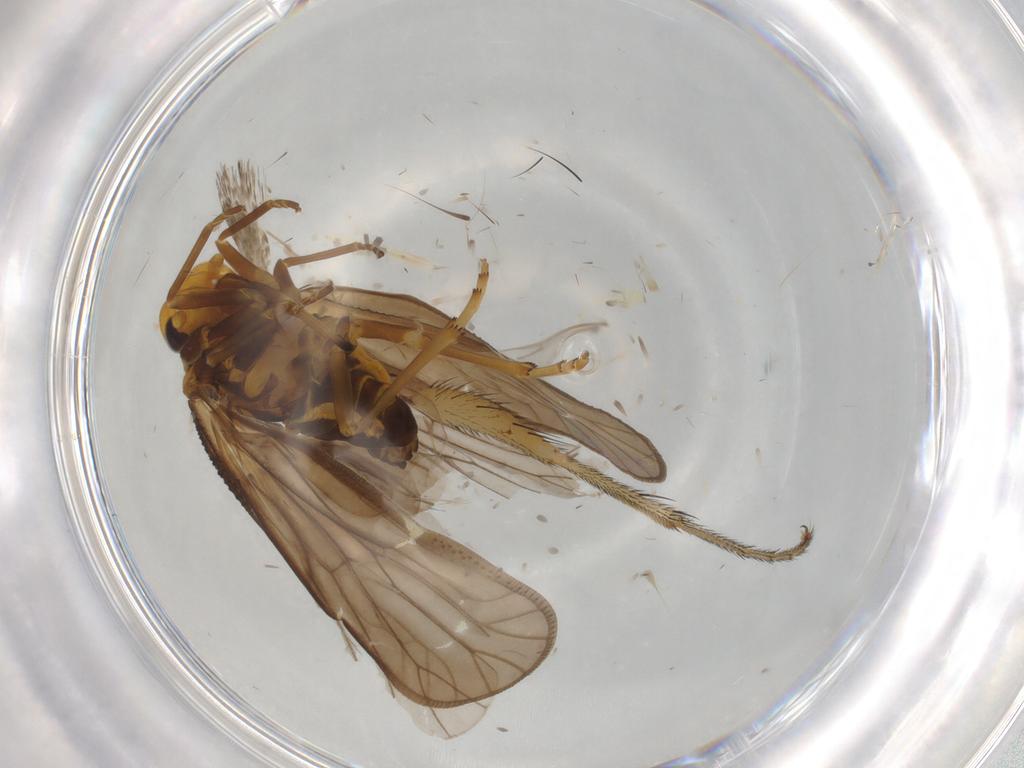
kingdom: Animalia
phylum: Arthropoda
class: Insecta
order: Hemiptera
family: Meenoplidae
